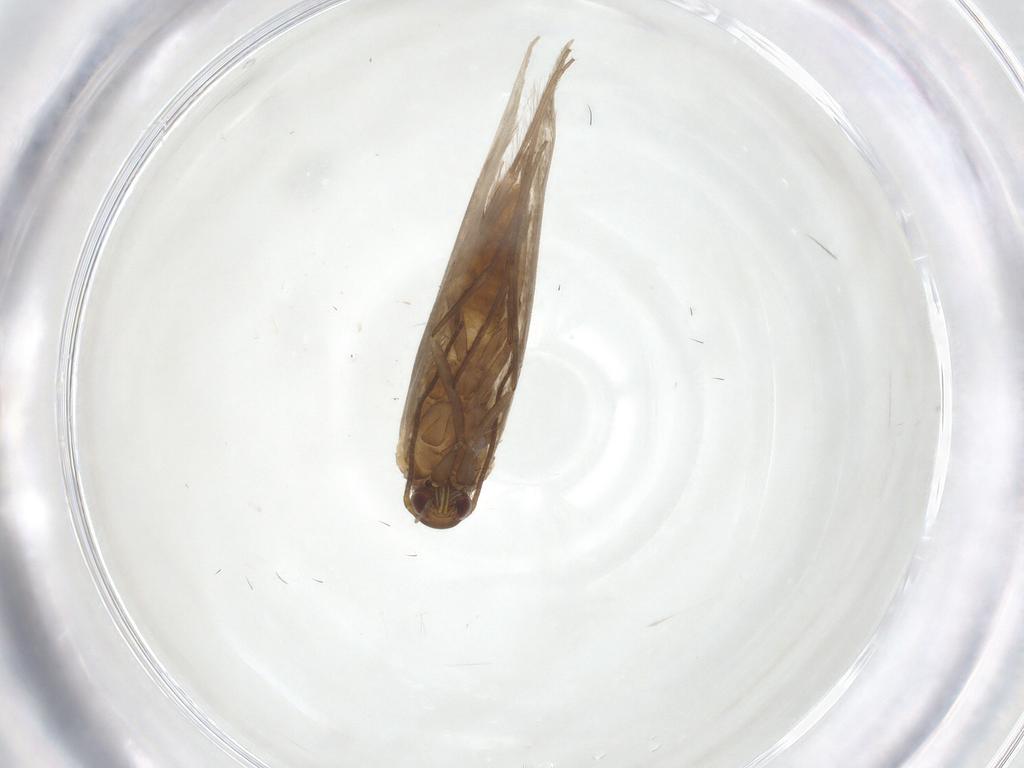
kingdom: Animalia
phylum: Arthropoda
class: Insecta
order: Lepidoptera
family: Douglasiidae
